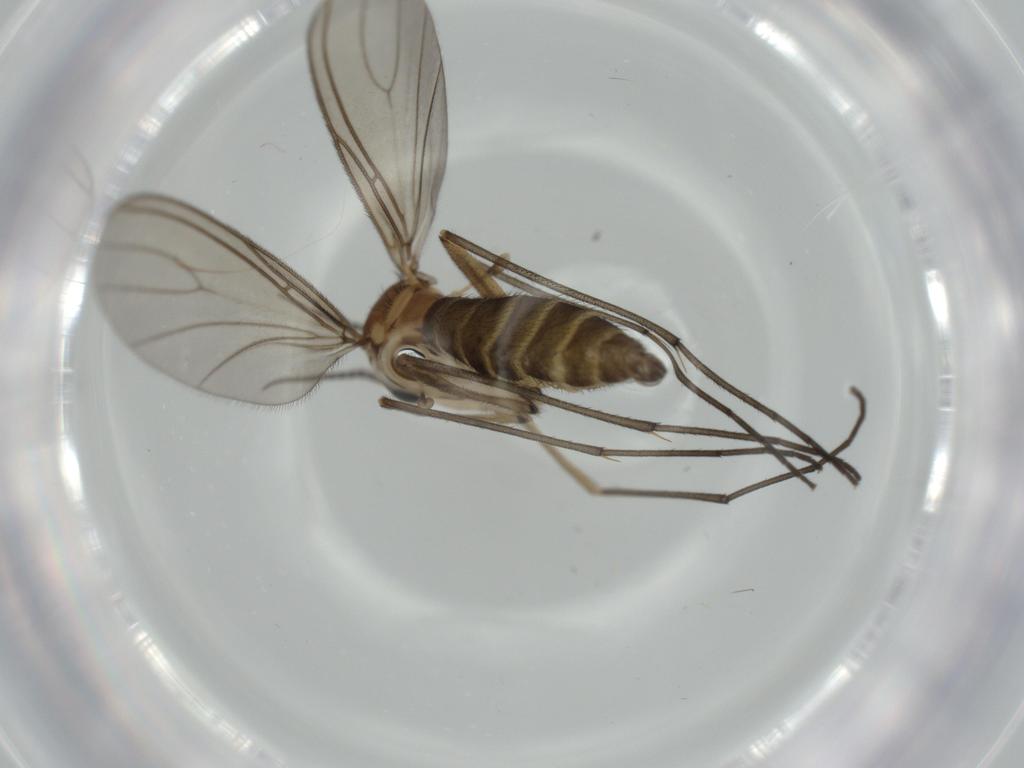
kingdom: Animalia
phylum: Arthropoda
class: Insecta
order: Diptera
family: Sciaridae
